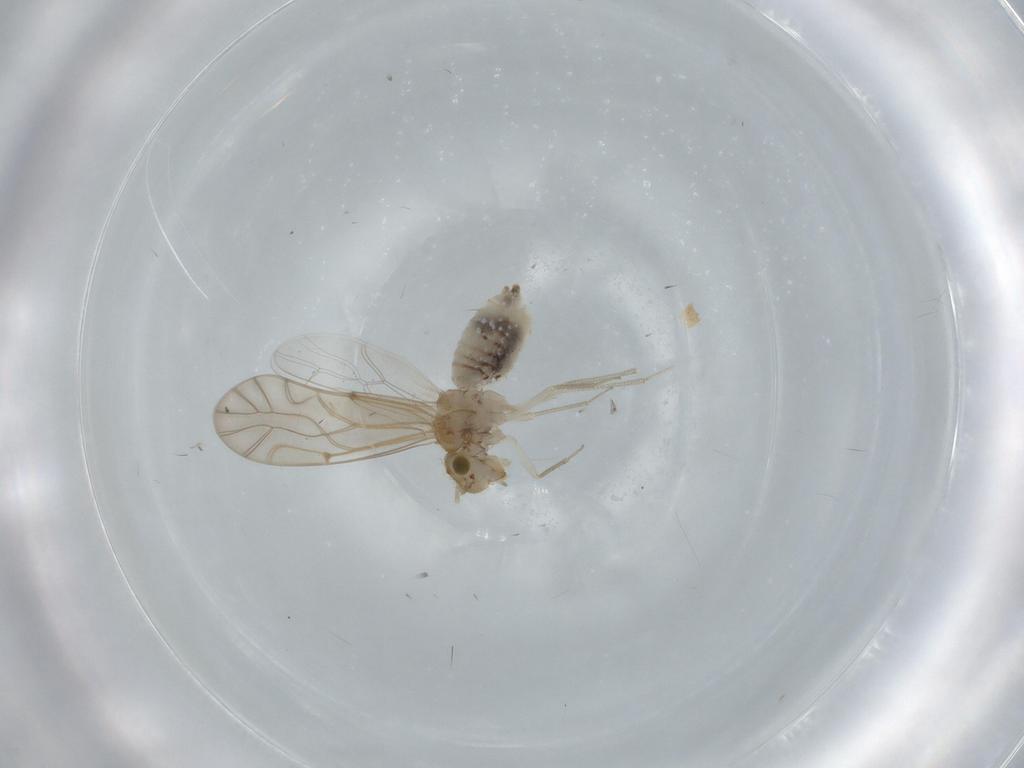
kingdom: Animalia
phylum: Arthropoda
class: Insecta
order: Psocodea
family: Lachesillidae
